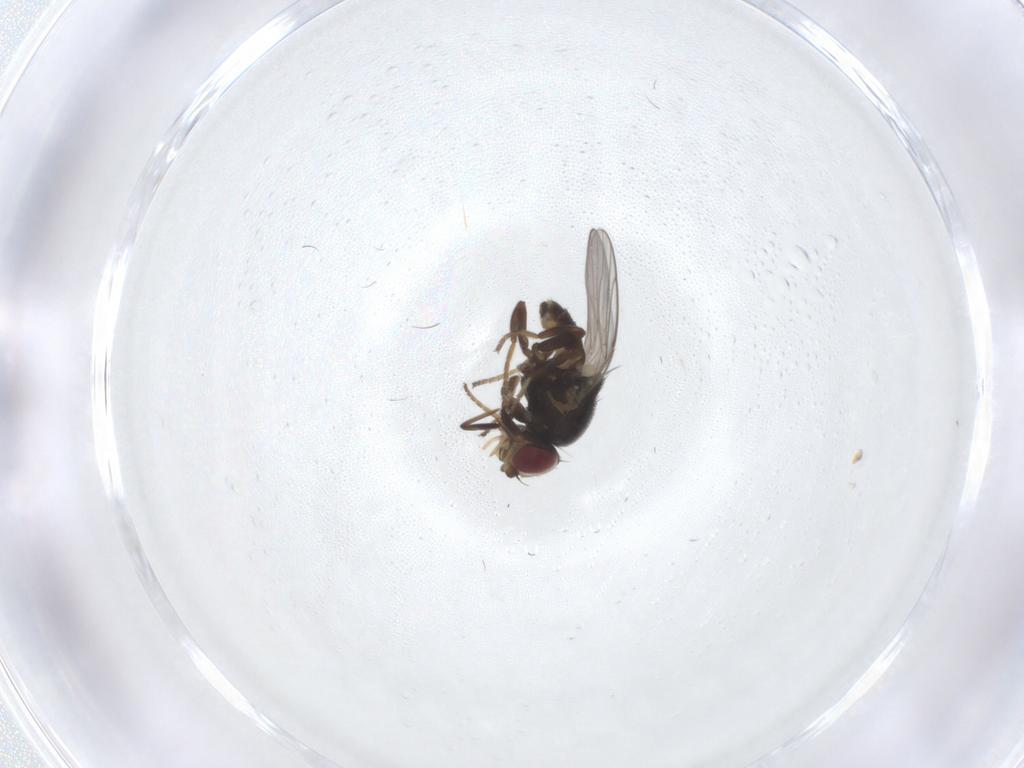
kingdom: Animalia
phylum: Arthropoda
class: Insecta
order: Diptera
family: Chloropidae
